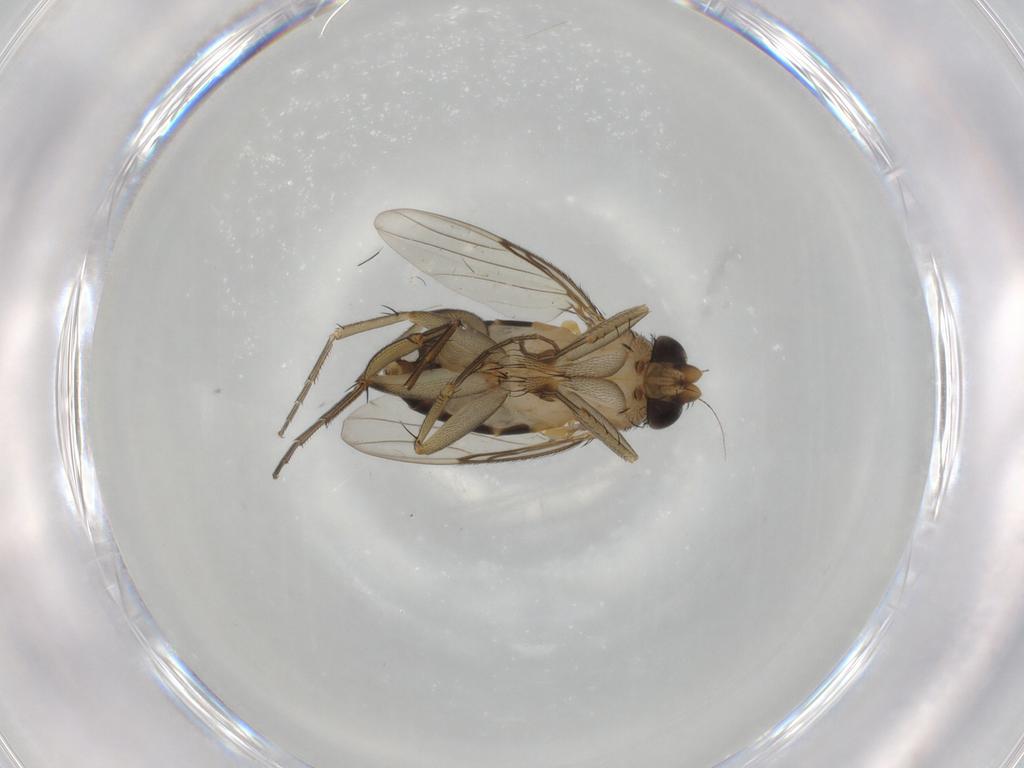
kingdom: Animalia
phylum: Arthropoda
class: Insecta
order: Diptera
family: Phoridae
